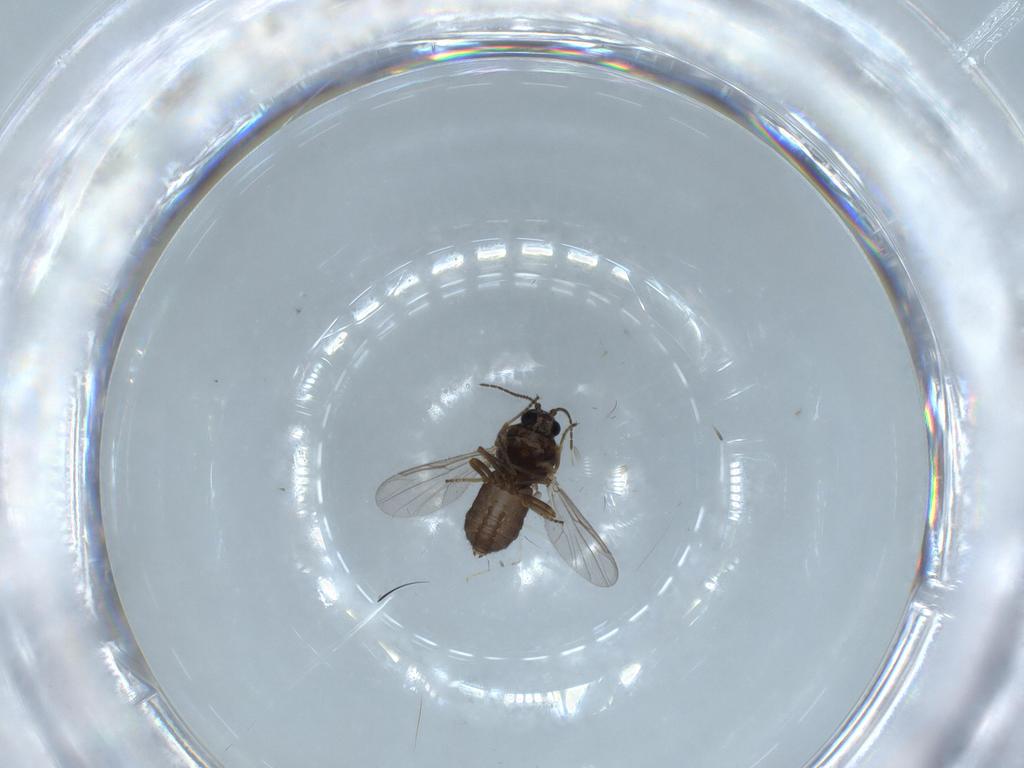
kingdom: Animalia
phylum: Arthropoda
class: Insecta
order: Diptera
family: Ceratopogonidae
